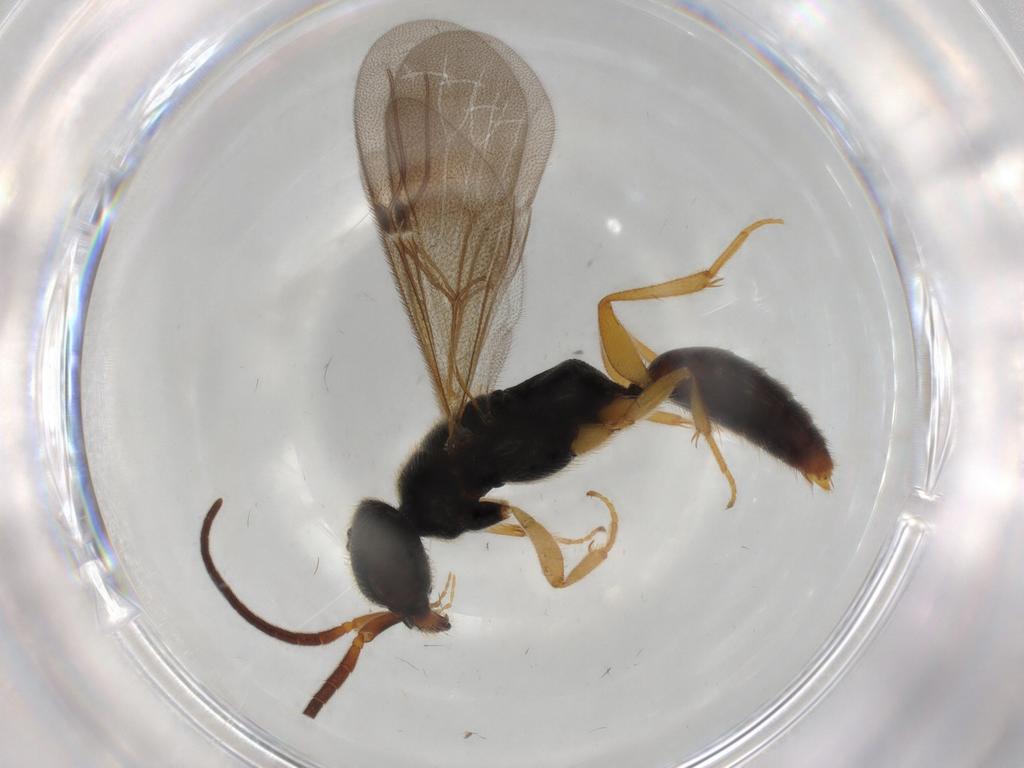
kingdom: Animalia
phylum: Arthropoda
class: Insecta
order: Hymenoptera
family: Bethylidae
